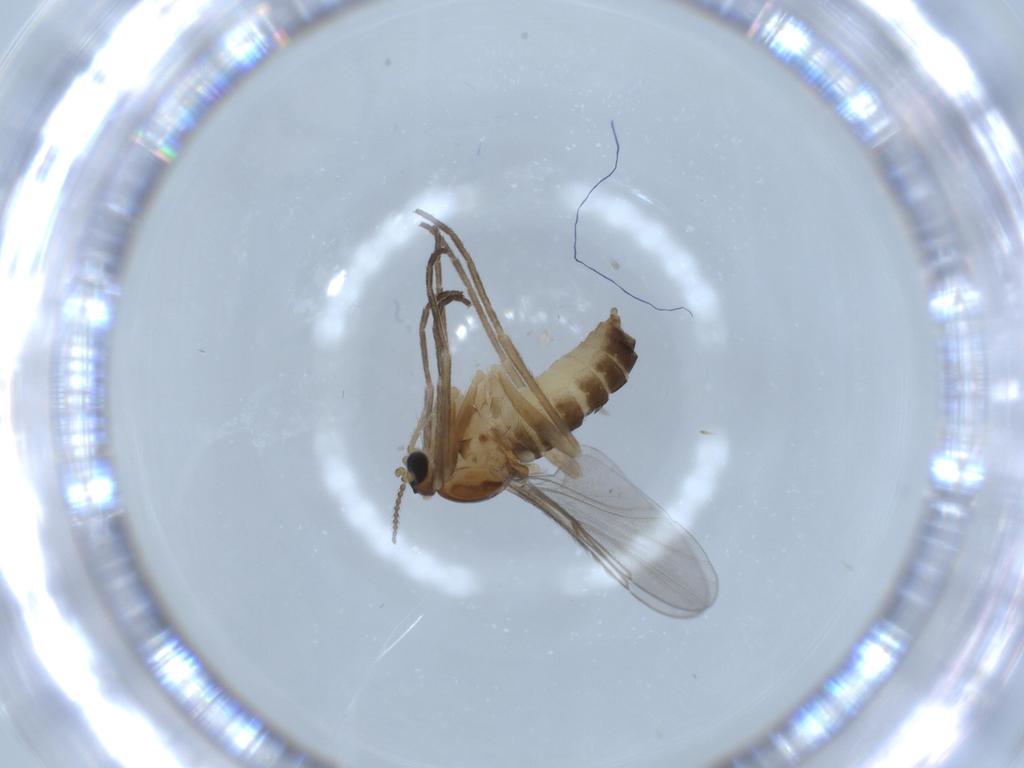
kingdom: Animalia
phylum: Arthropoda
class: Insecta
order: Diptera
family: Cecidomyiidae
